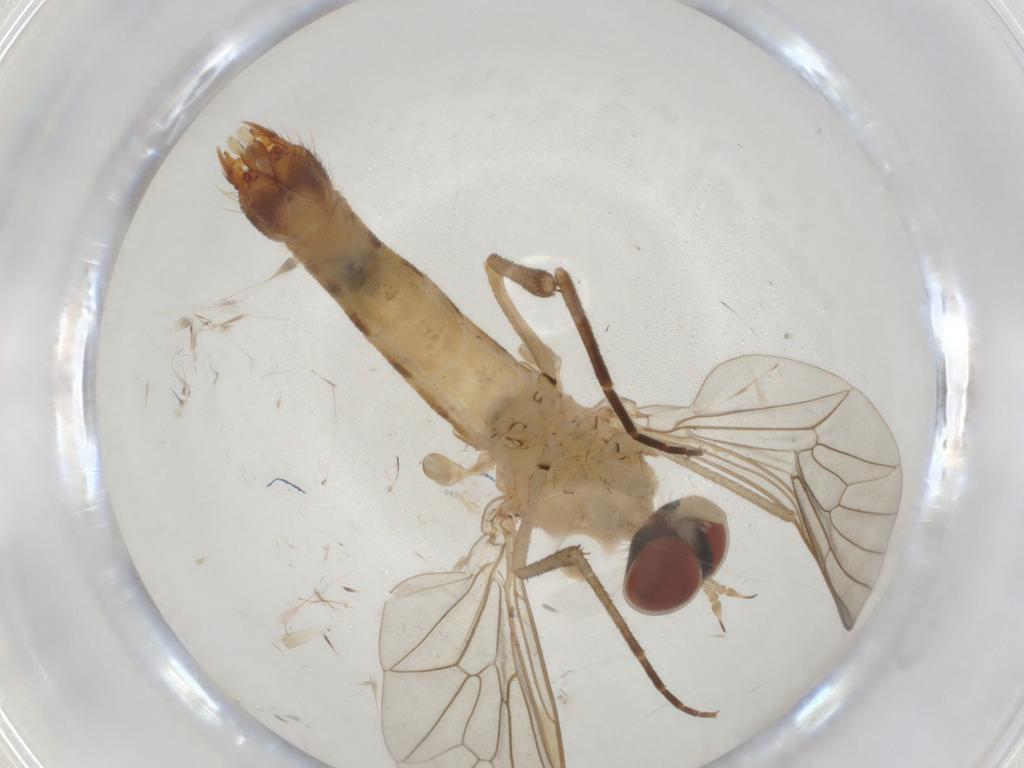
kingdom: Animalia
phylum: Arthropoda
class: Insecta
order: Diptera
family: Apsilocephalidae
